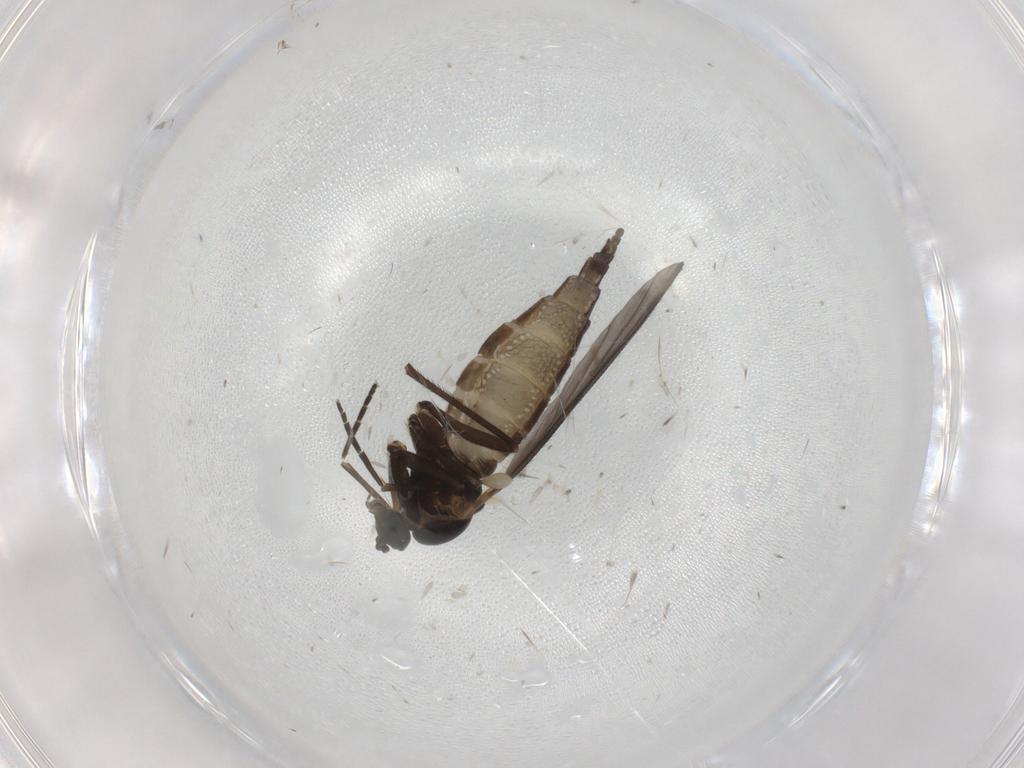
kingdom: Animalia
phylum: Arthropoda
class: Insecta
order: Diptera
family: Sciaridae
